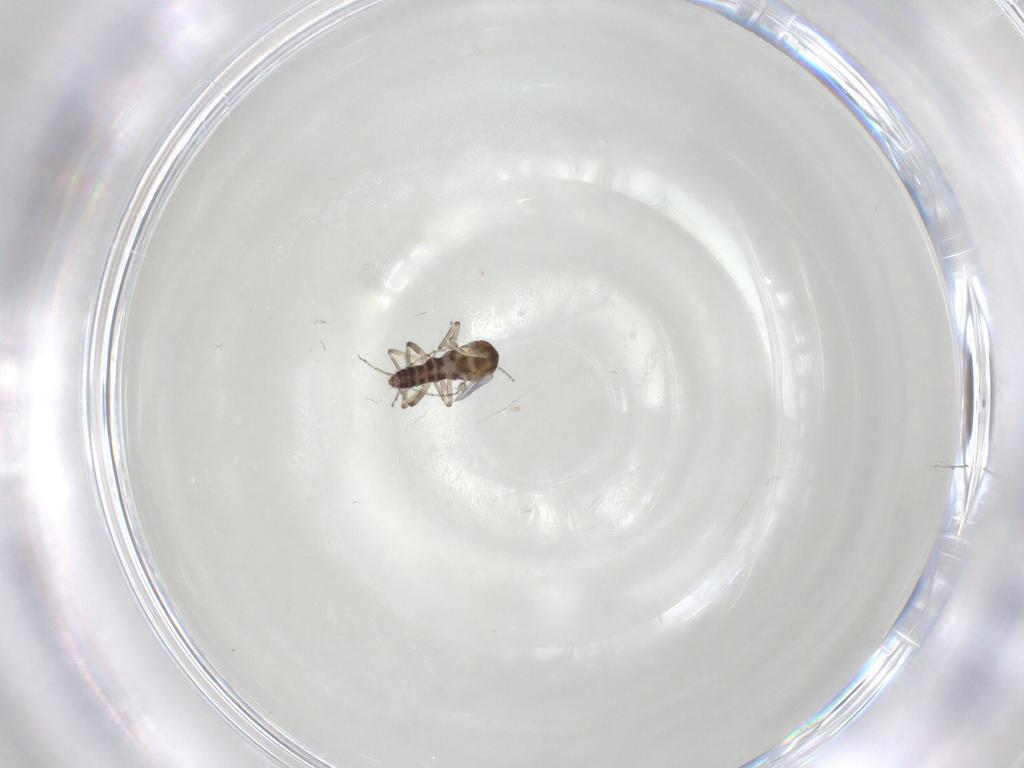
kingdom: Animalia
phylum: Arthropoda
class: Insecta
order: Diptera
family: Ceratopogonidae
